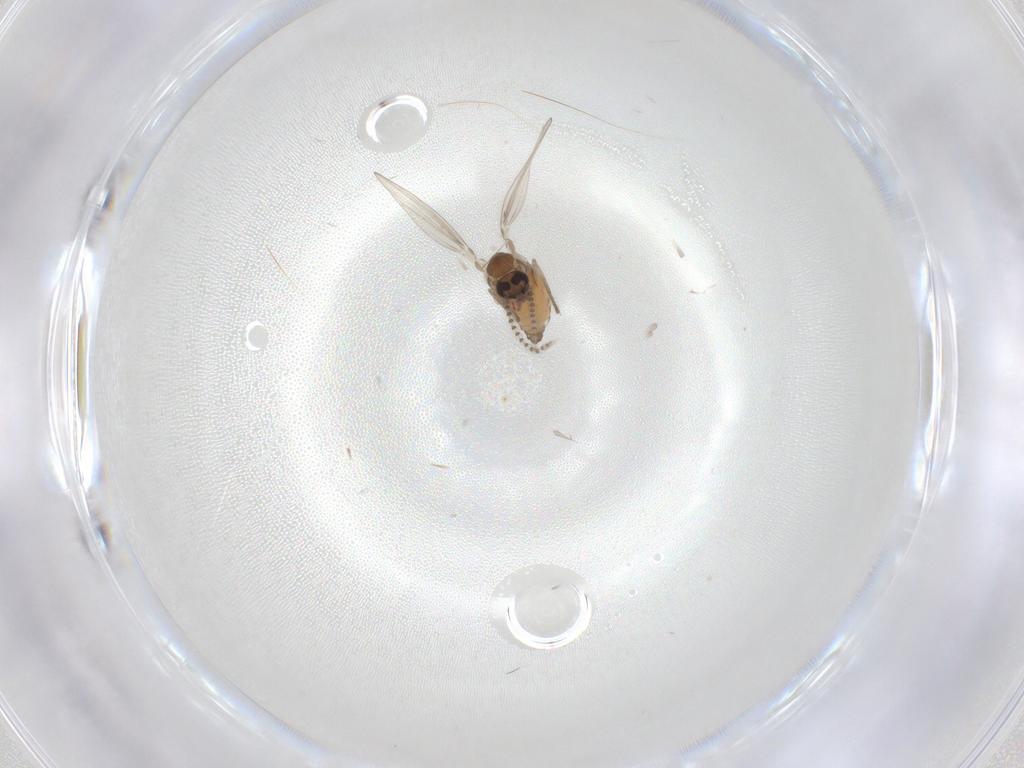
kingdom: Animalia
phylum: Arthropoda
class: Insecta
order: Diptera
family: Psychodidae
